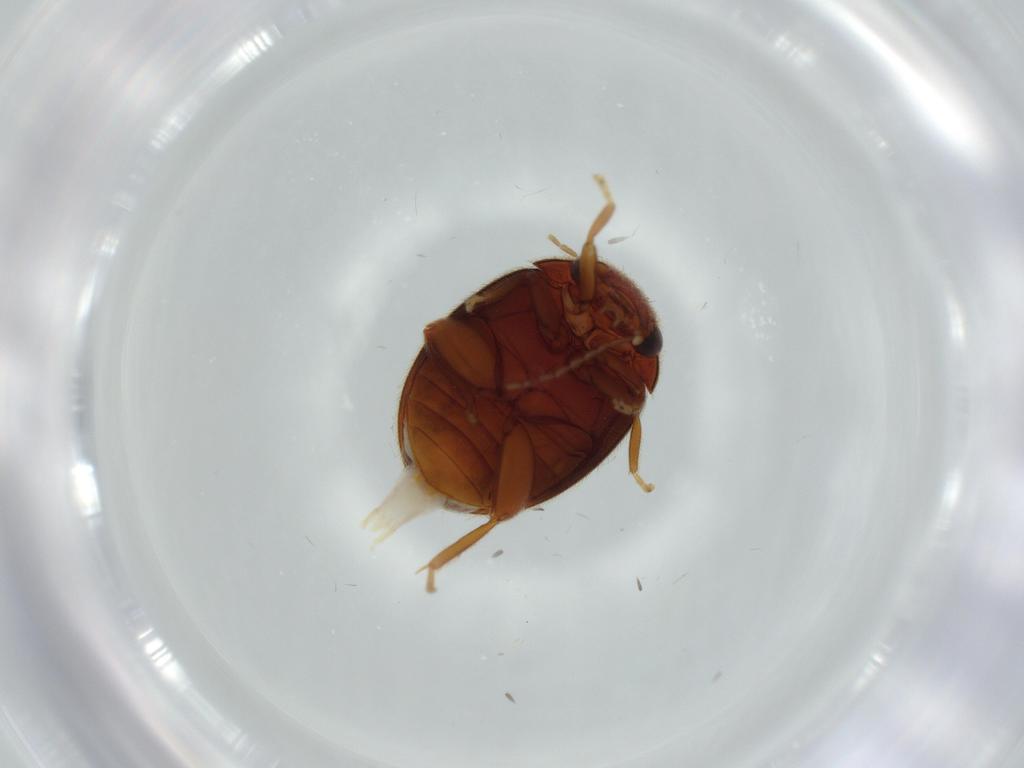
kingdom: Animalia
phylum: Arthropoda
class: Insecta
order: Coleoptera
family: Scirtidae
